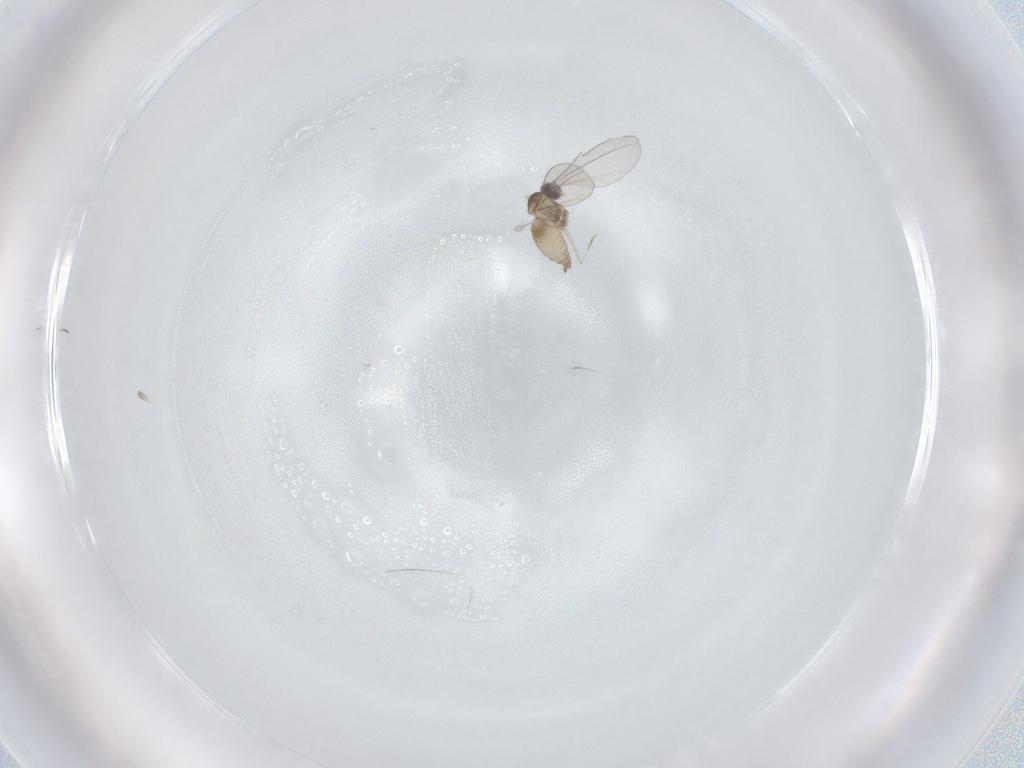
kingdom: Animalia
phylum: Arthropoda
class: Insecta
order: Diptera
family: Cecidomyiidae
